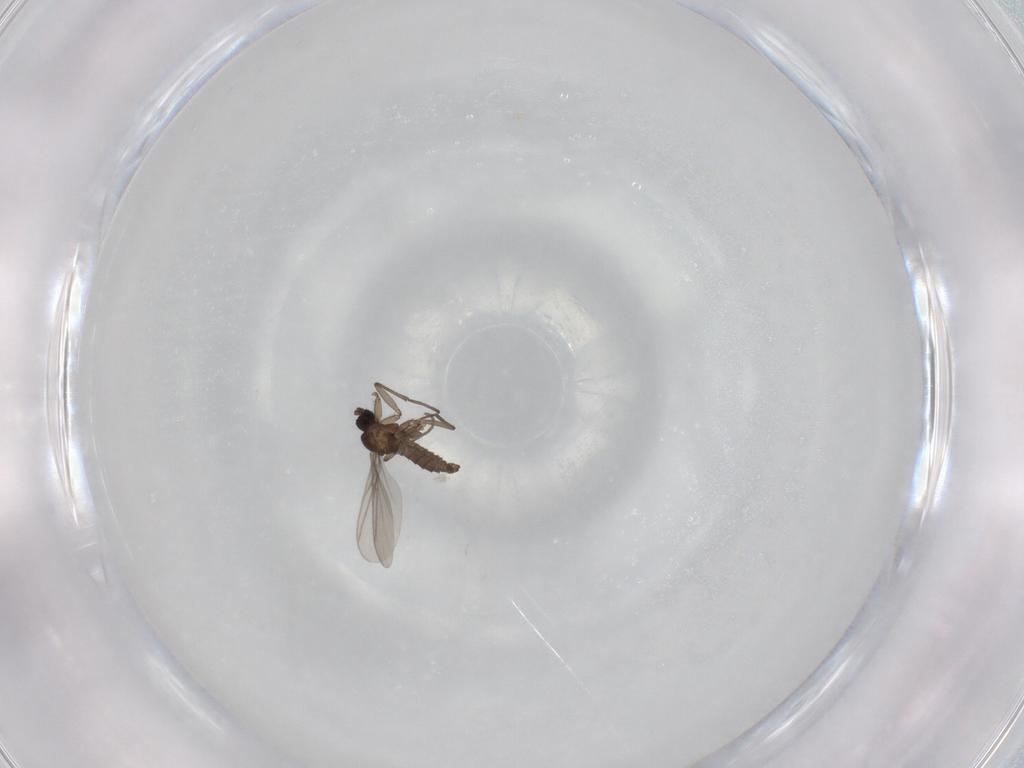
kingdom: Animalia
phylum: Arthropoda
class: Insecta
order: Diptera
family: Sciaridae
